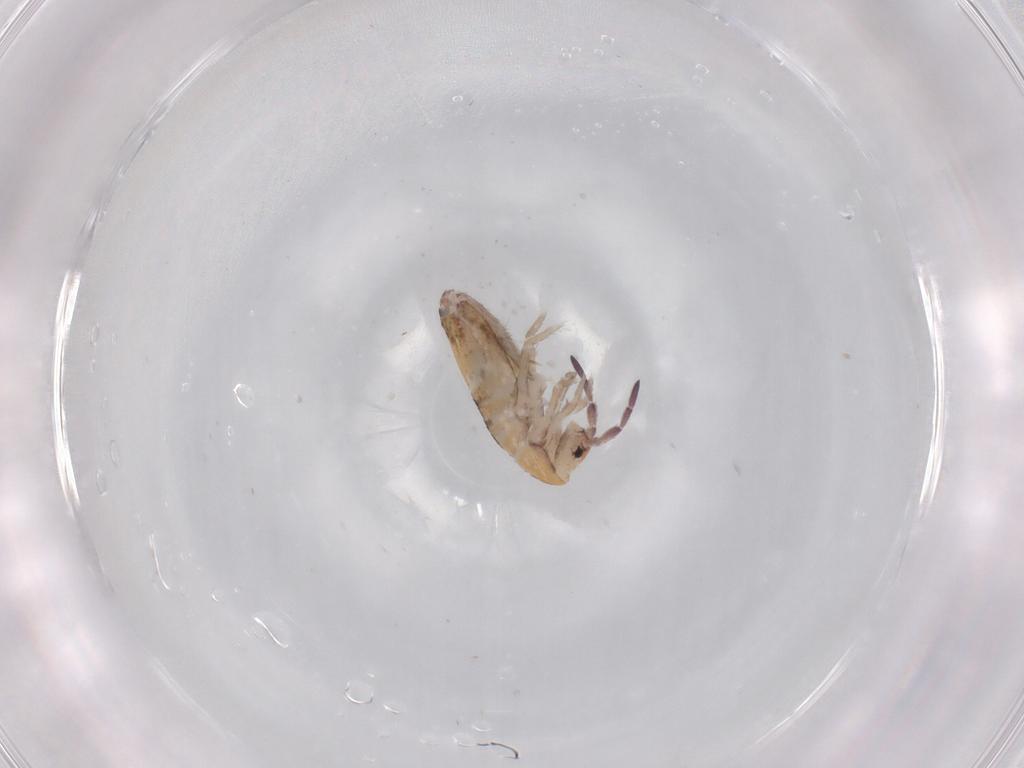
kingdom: Animalia
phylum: Arthropoda
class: Collembola
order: Entomobryomorpha
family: Entomobryidae
